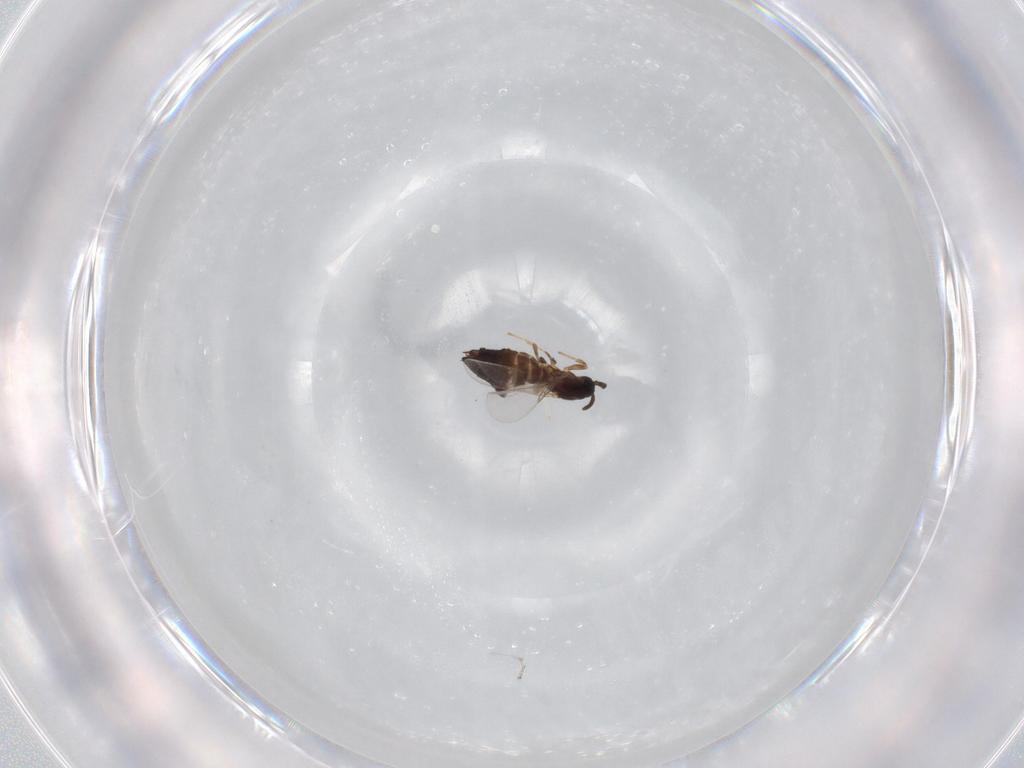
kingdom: Animalia
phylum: Arthropoda
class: Insecta
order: Diptera
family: Scatopsidae
